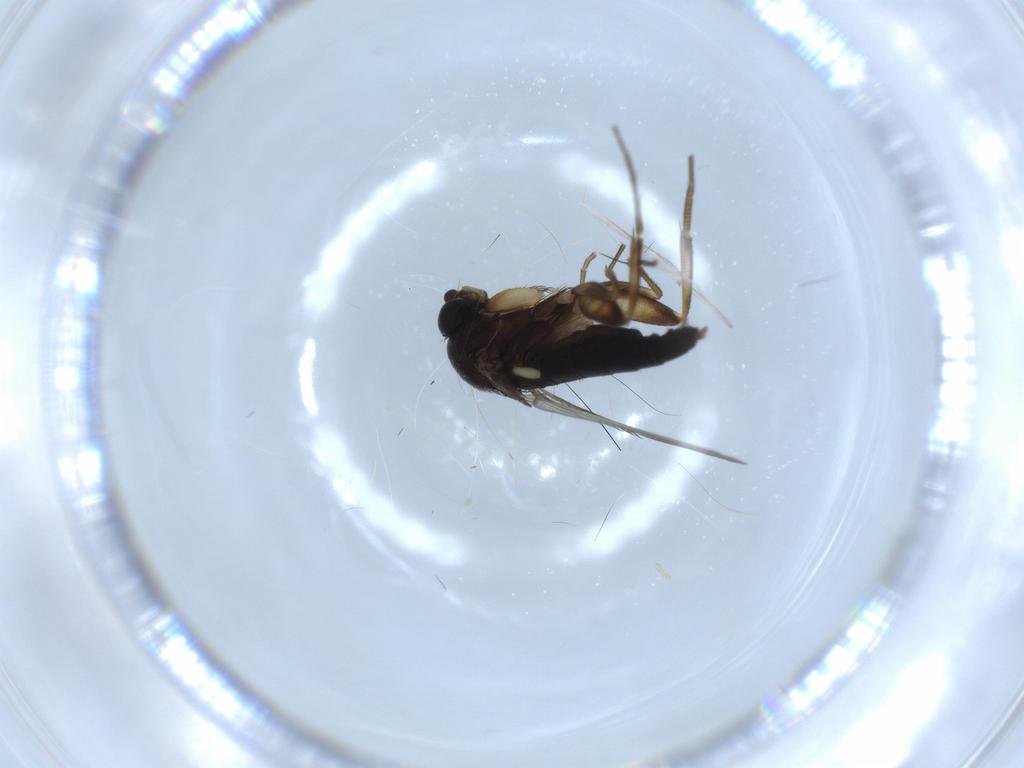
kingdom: Animalia
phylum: Arthropoda
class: Insecta
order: Diptera
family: Phoridae
